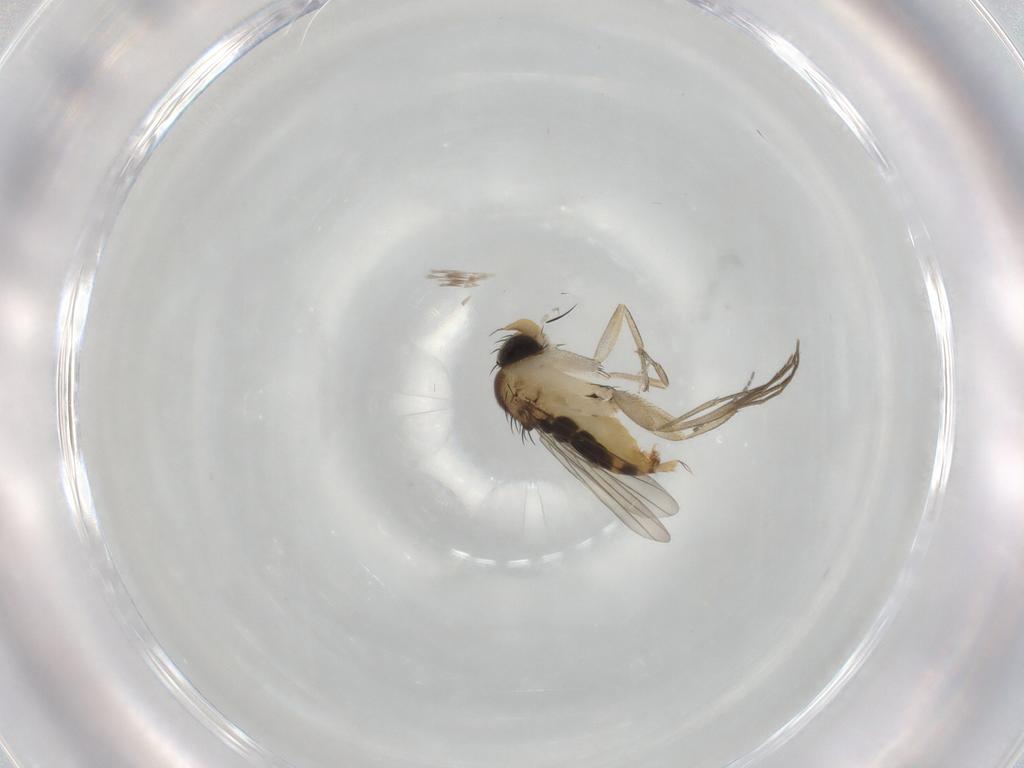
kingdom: Animalia
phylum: Arthropoda
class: Insecta
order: Diptera
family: Phoridae
